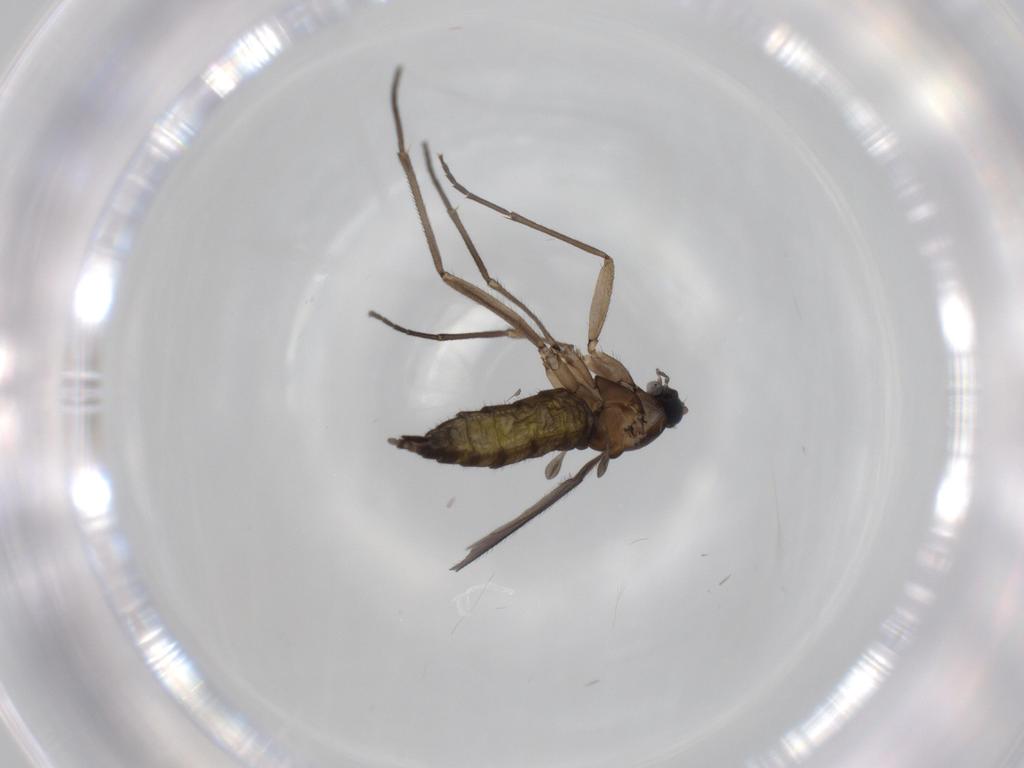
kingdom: Animalia
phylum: Arthropoda
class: Insecta
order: Diptera
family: Sciaridae
